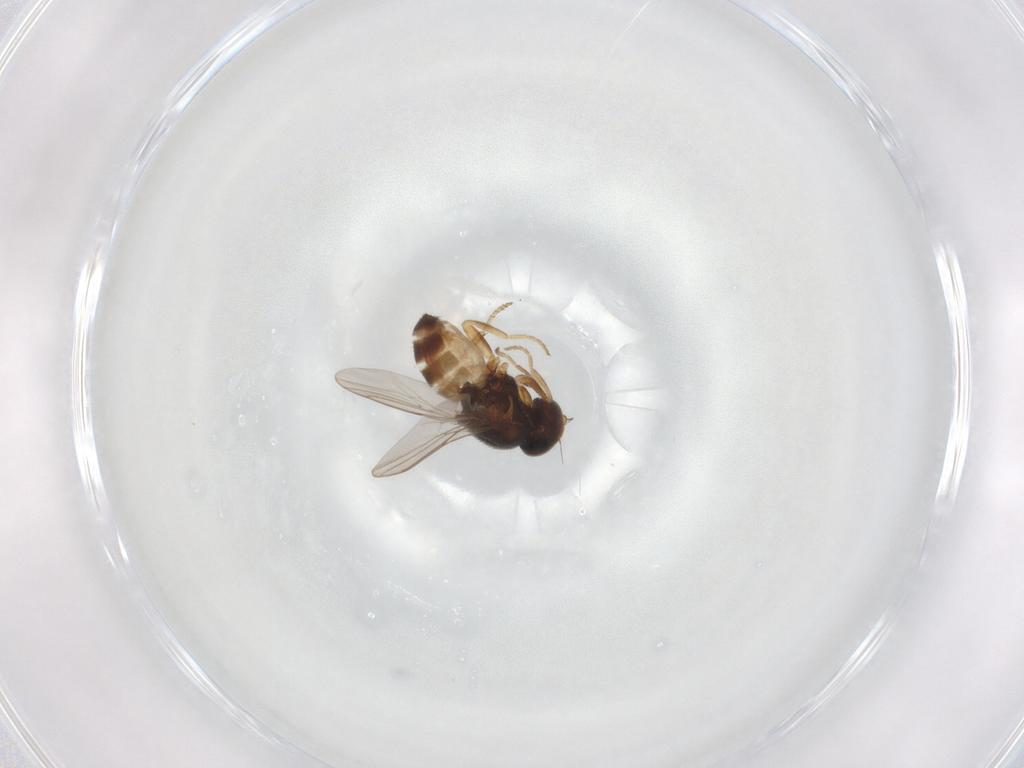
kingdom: Animalia
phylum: Arthropoda
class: Insecta
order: Diptera
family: Chloropidae
